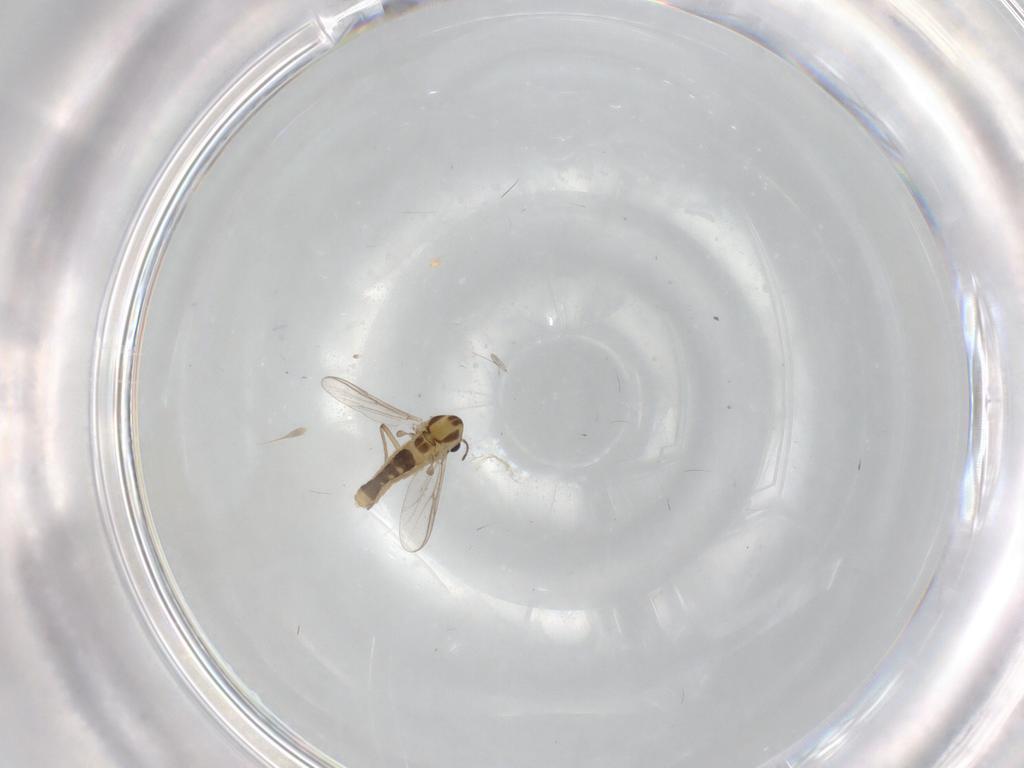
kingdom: Animalia
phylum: Arthropoda
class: Insecta
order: Diptera
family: Chironomidae
